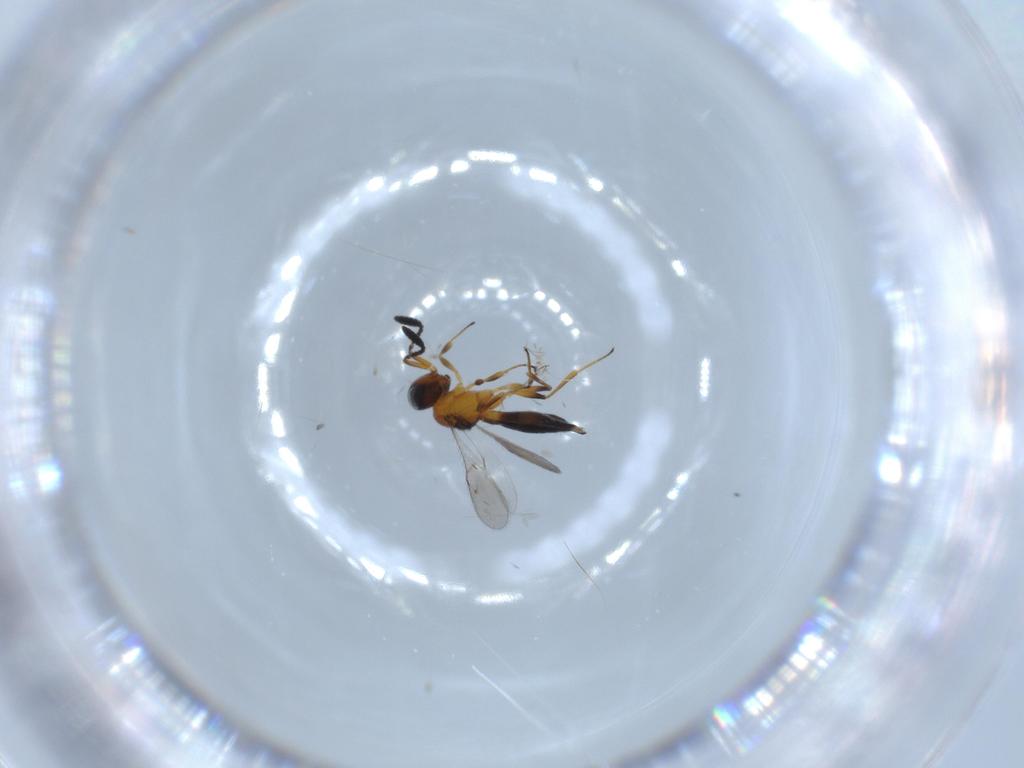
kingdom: Animalia
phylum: Arthropoda
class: Insecta
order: Hymenoptera
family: Scelionidae
